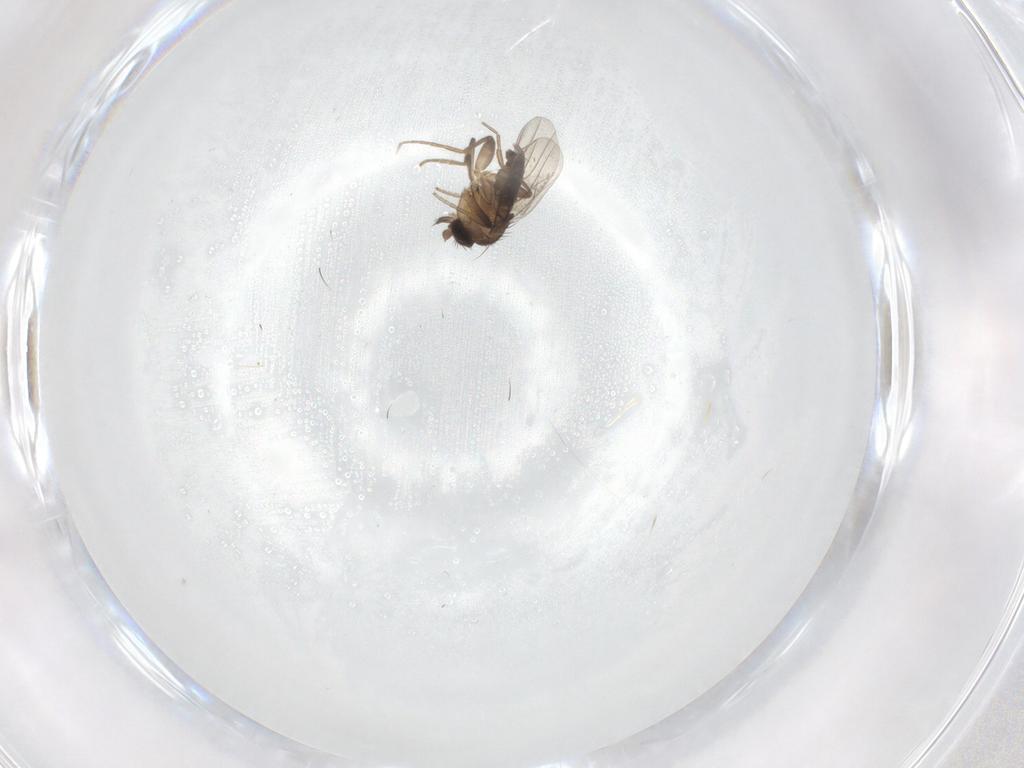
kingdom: Animalia
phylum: Arthropoda
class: Insecta
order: Diptera
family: Phoridae
